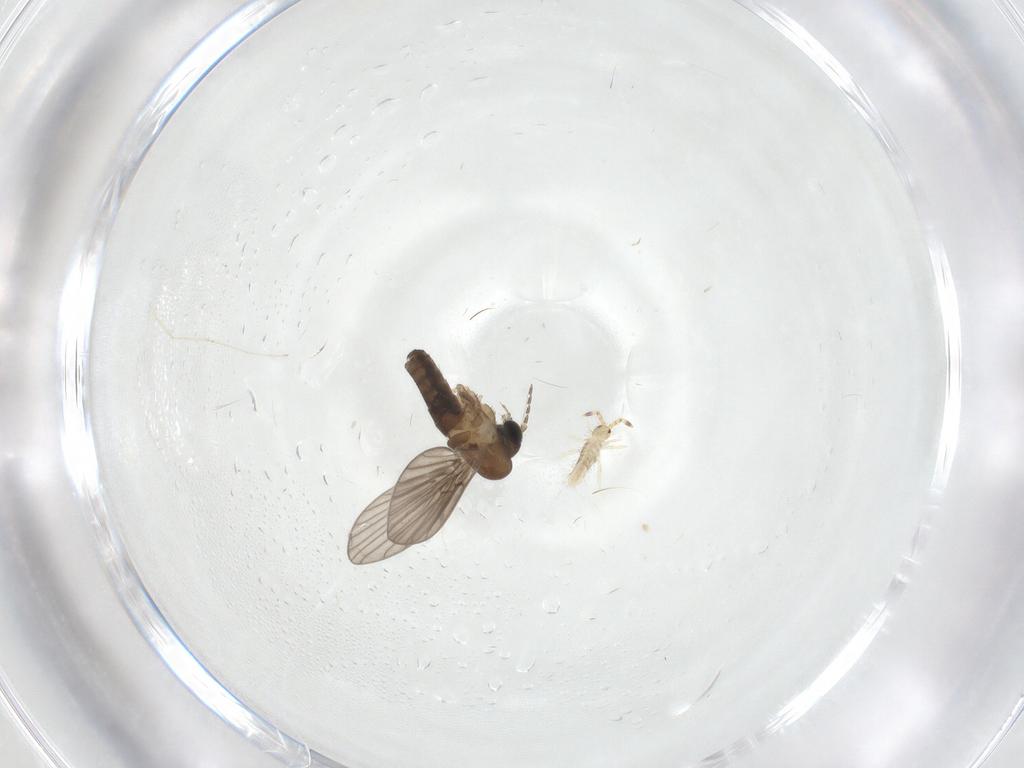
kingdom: Animalia
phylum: Arthropoda
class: Collembola
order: Entomobryomorpha
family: Entomobryidae
